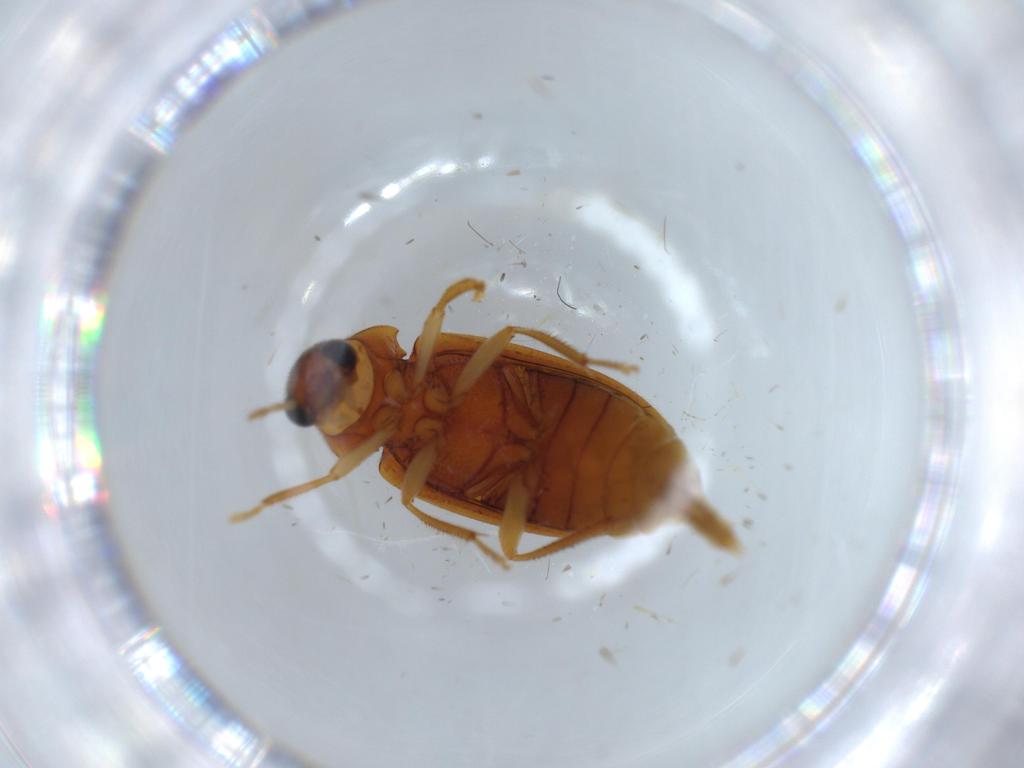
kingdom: Animalia
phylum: Arthropoda
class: Insecta
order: Coleoptera
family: Ptilodactylidae
